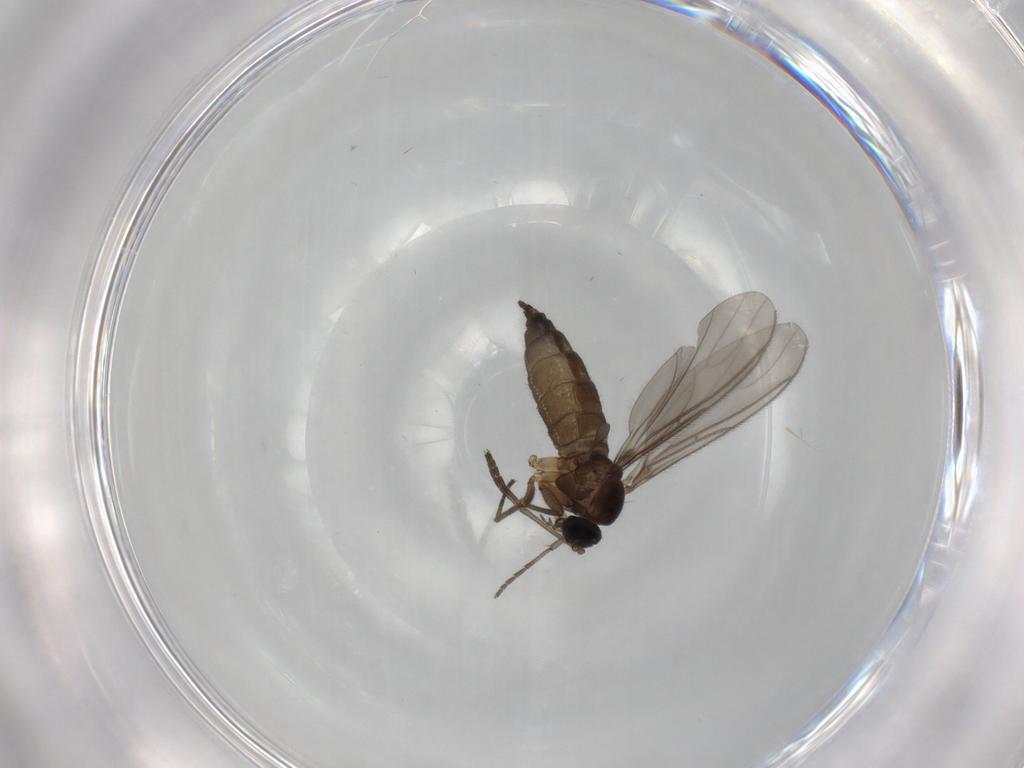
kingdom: Animalia
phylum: Arthropoda
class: Insecta
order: Diptera
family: Sciaridae
